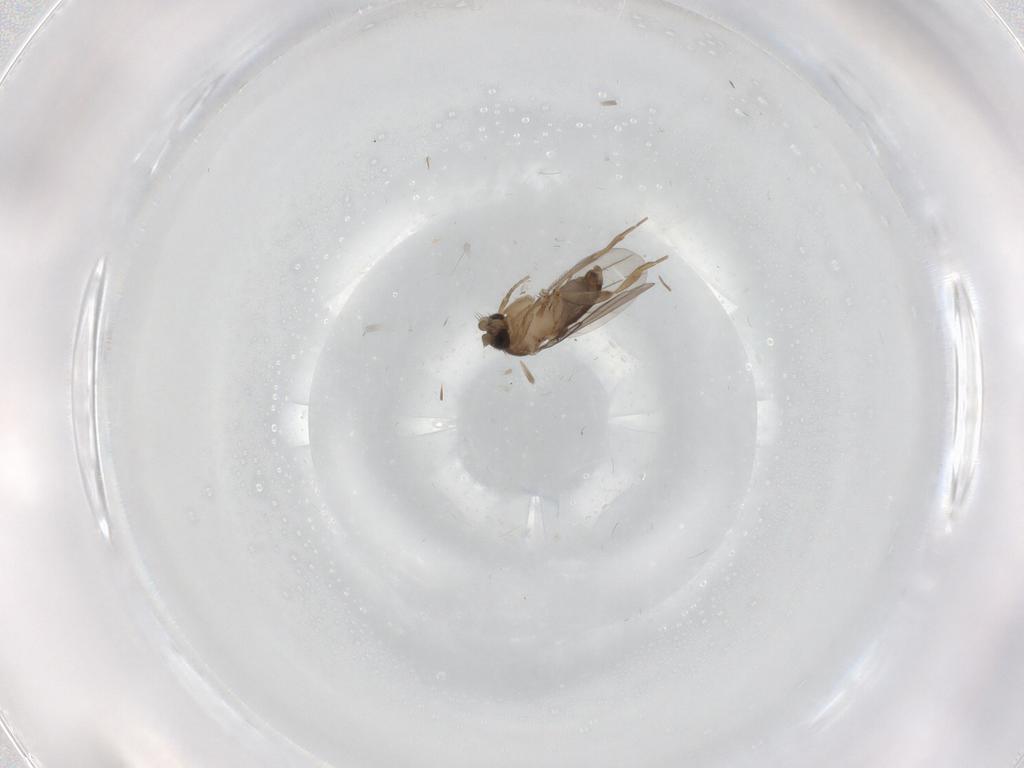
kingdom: Animalia
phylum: Arthropoda
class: Insecta
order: Diptera
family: Phoridae
